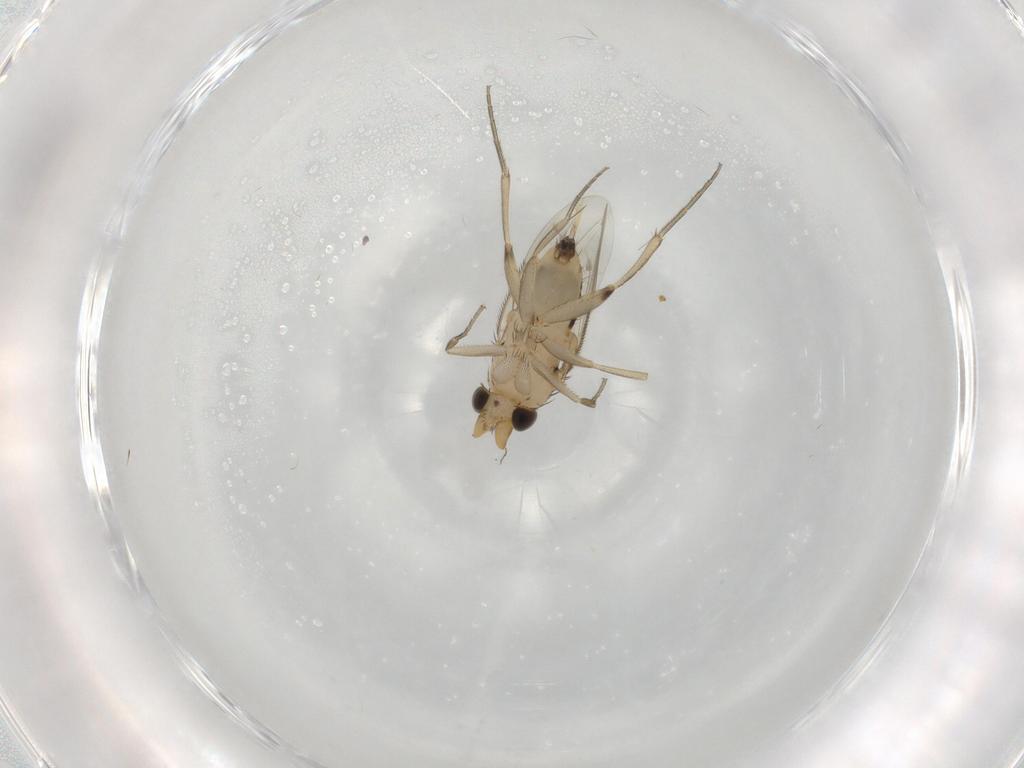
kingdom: Animalia
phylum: Arthropoda
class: Insecta
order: Diptera
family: Phoridae
